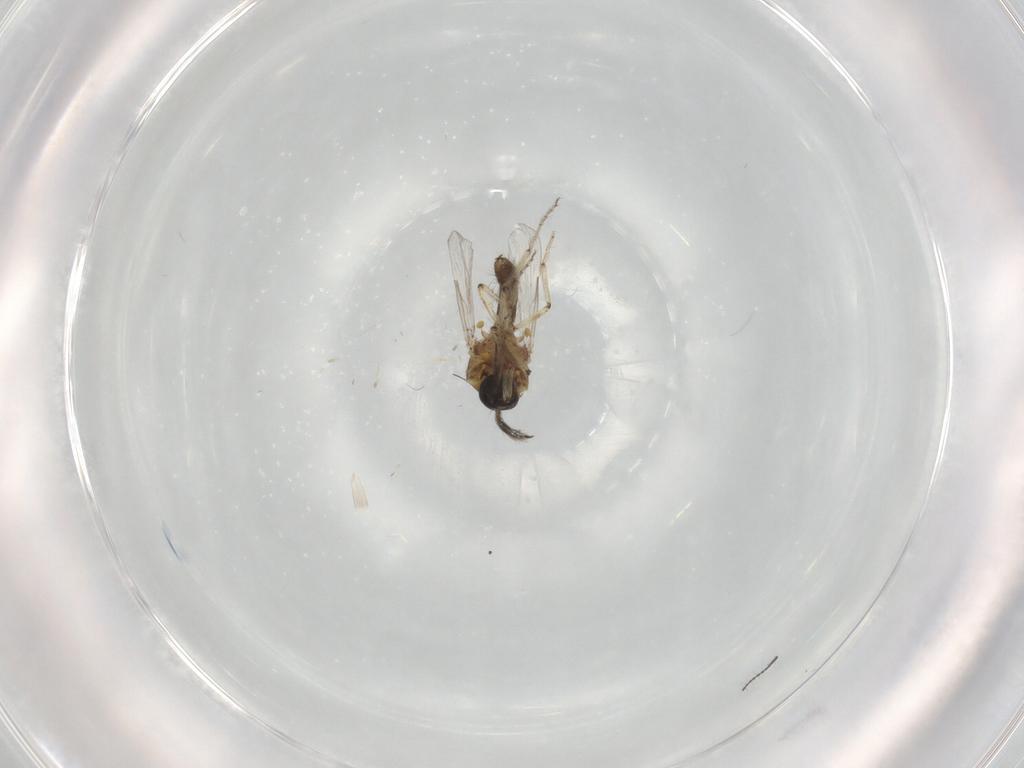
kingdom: Animalia
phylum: Arthropoda
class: Insecta
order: Diptera
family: Ceratopogonidae
